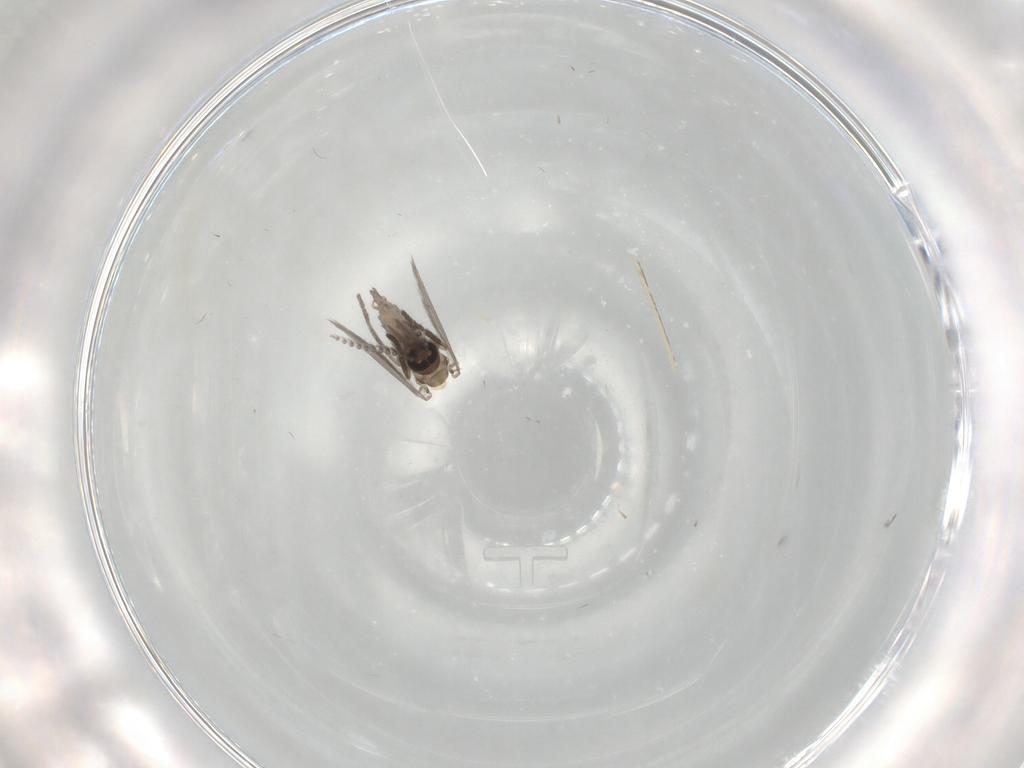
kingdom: Animalia
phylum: Arthropoda
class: Insecta
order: Diptera
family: Psychodidae
